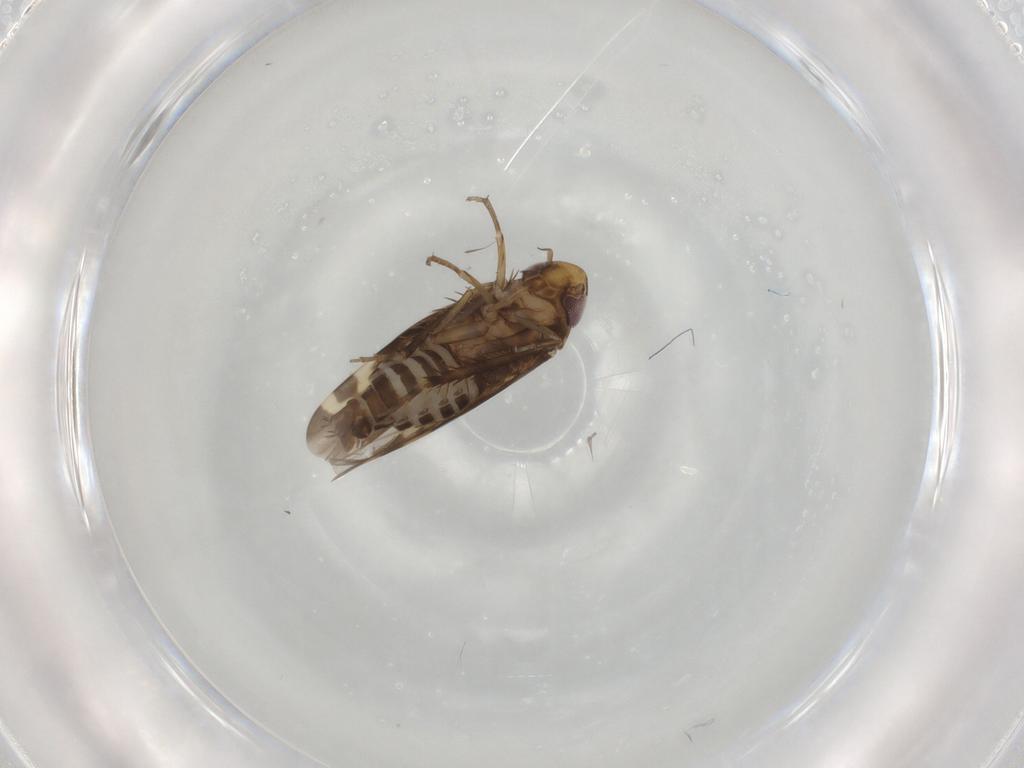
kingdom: Animalia
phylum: Arthropoda
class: Insecta
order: Hemiptera
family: Cicadellidae
